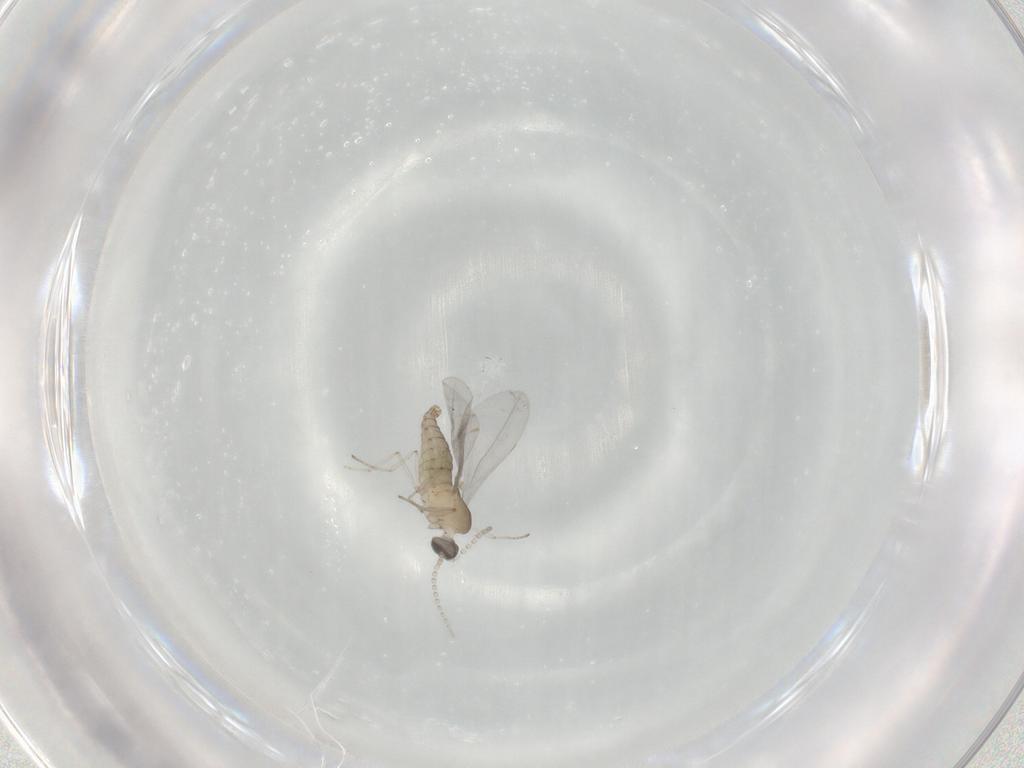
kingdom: Animalia
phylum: Arthropoda
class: Insecta
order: Diptera
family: Cecidomyiidae
